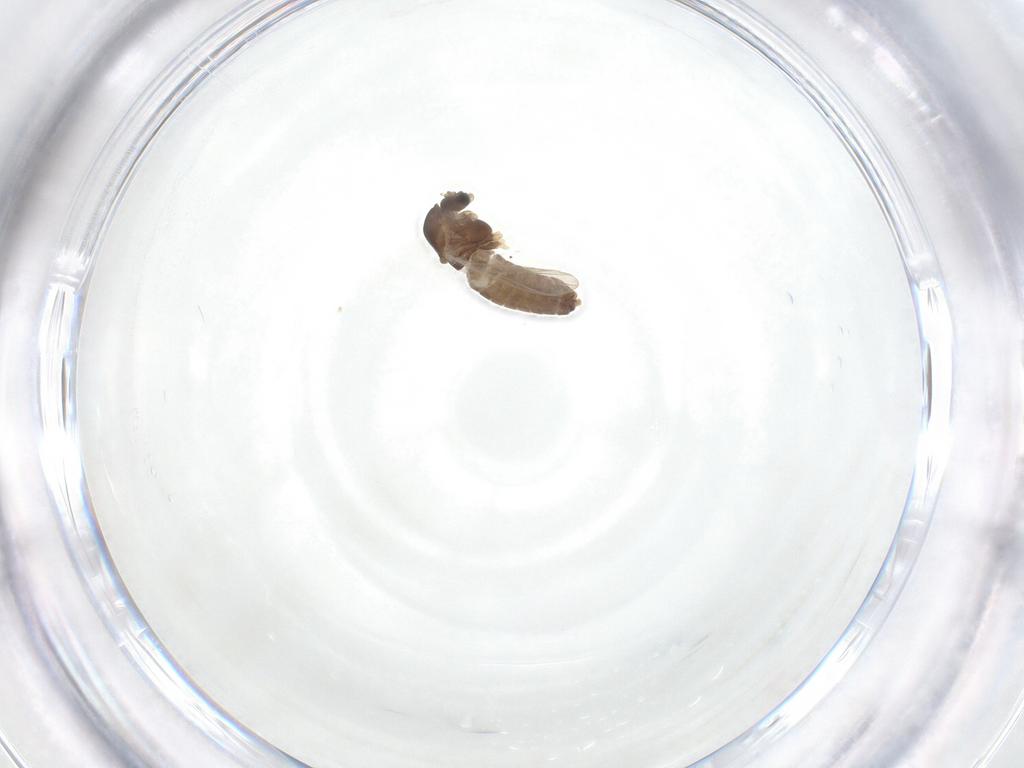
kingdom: Animalia
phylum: Arthropoda
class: Insecta
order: Diptera
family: Chironomidae
